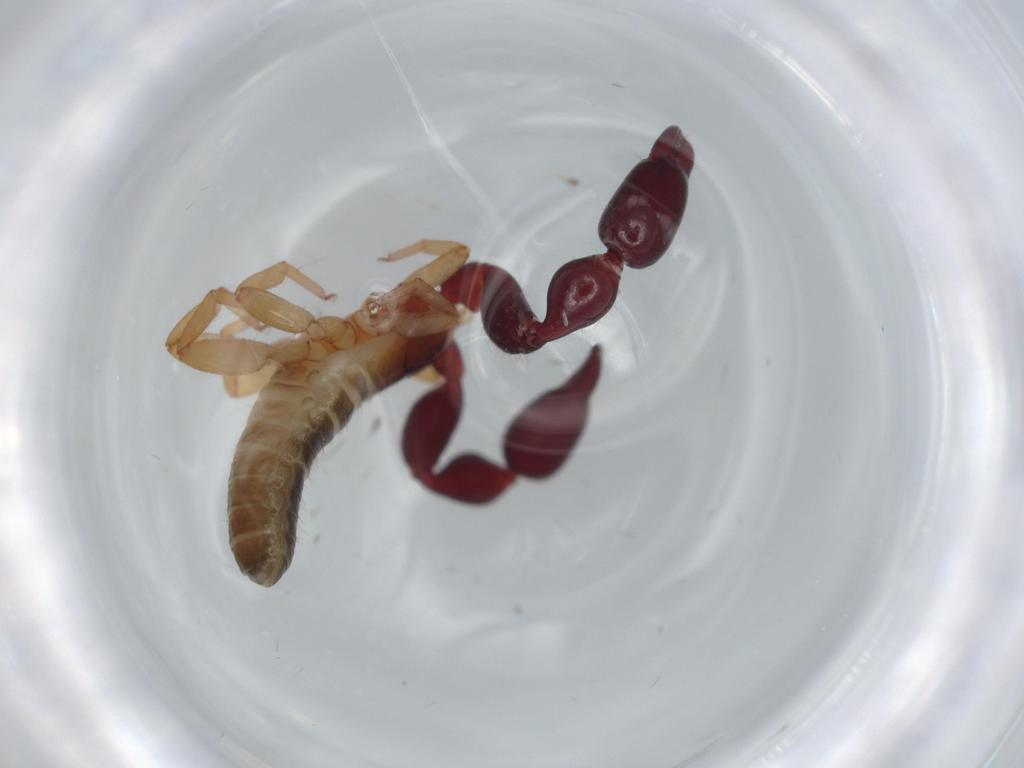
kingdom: Animalia
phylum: Arthropoda
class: Arachnida
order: Pseudoscorpiones
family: Chernetidae
